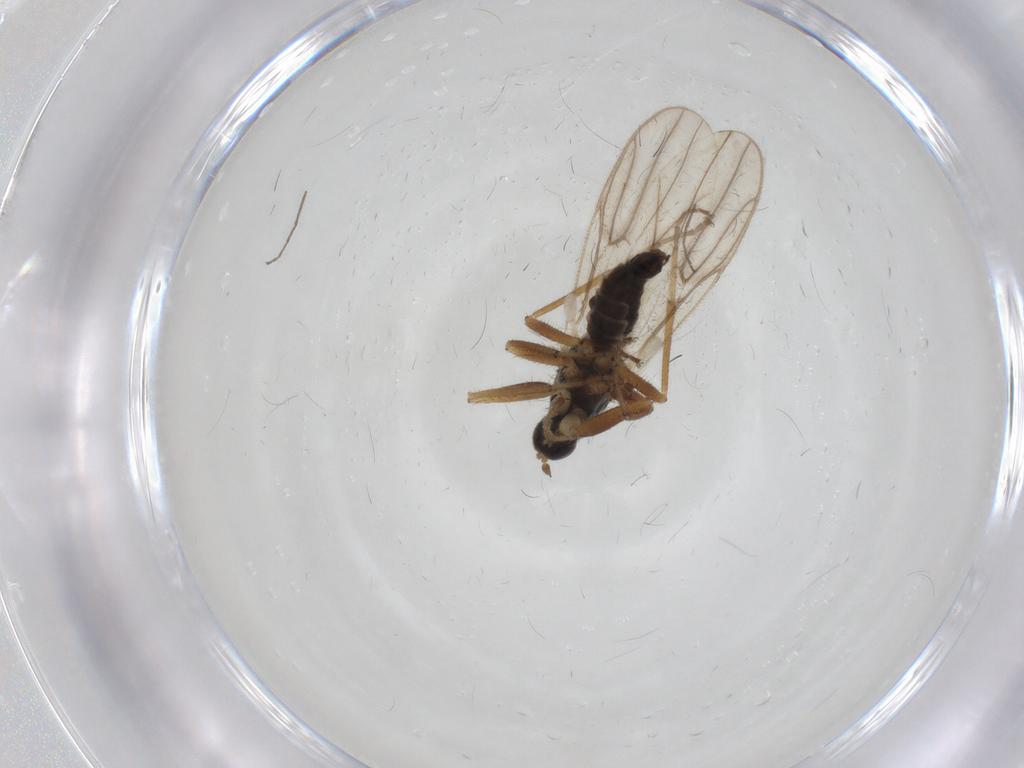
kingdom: Animalia
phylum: Arthropoda
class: Insecta
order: Diptera
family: Hybotidae
